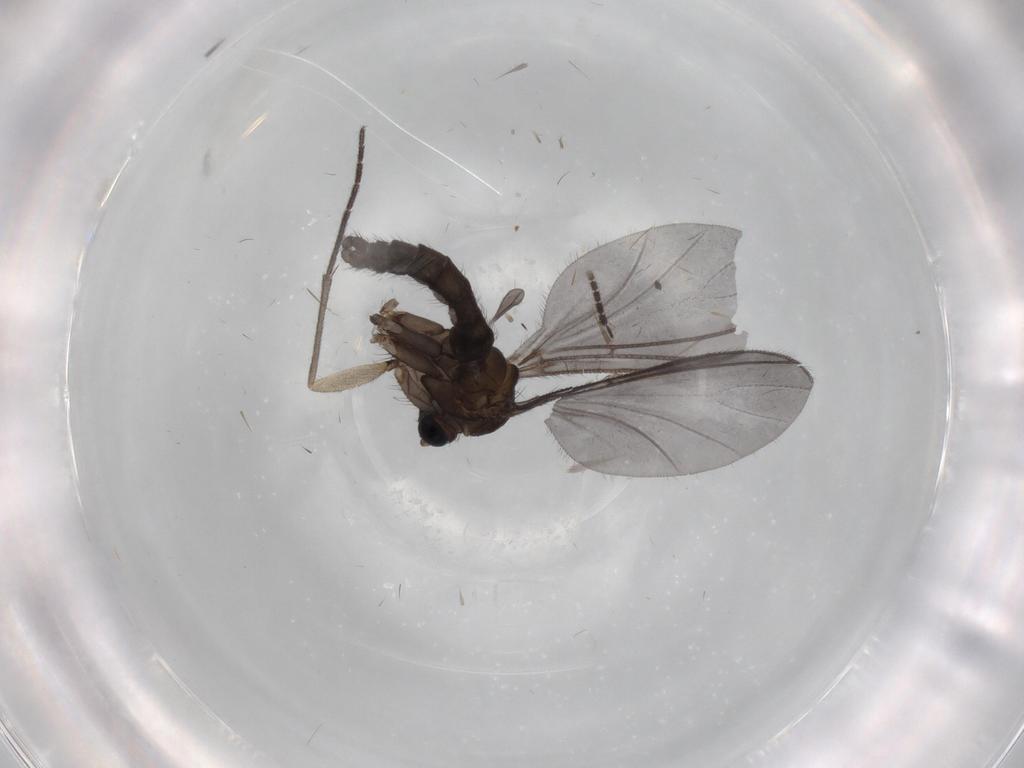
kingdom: Animalia
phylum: Arthropoda
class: Insecta
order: Diptera
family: Sciaridae
